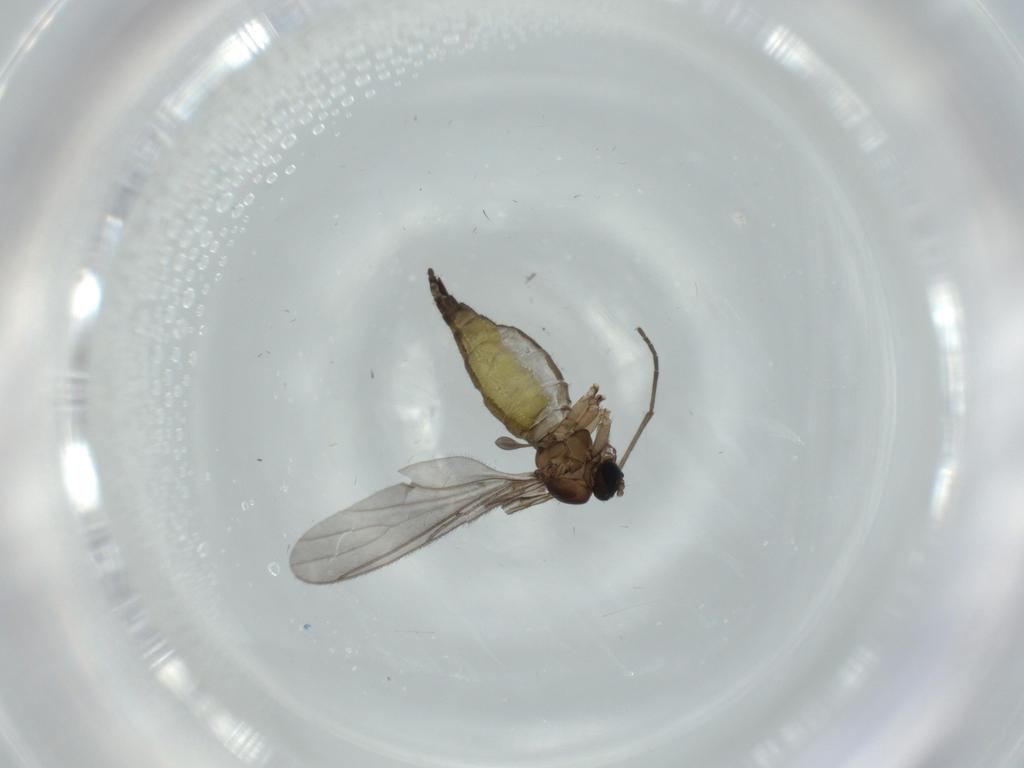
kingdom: Animalia
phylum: Arthropoda
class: Insecta
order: Diptera
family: Sciaridae
